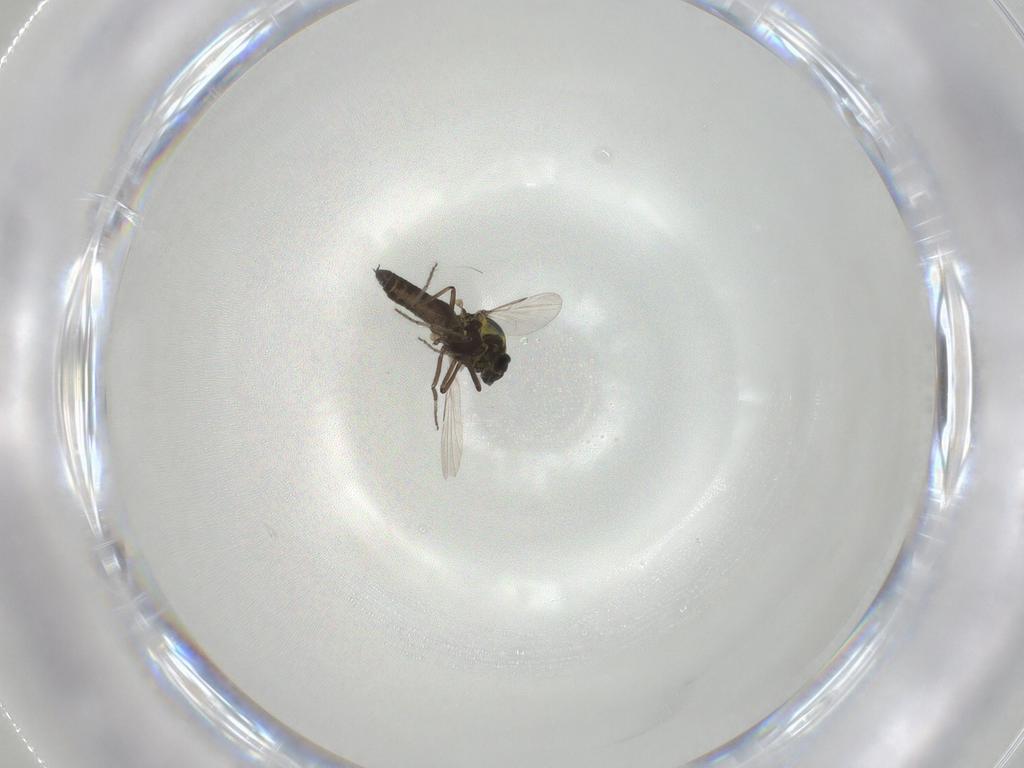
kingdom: Animalia
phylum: Arthropoda
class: Insecta
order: Diptera
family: Ceratopogonidae
